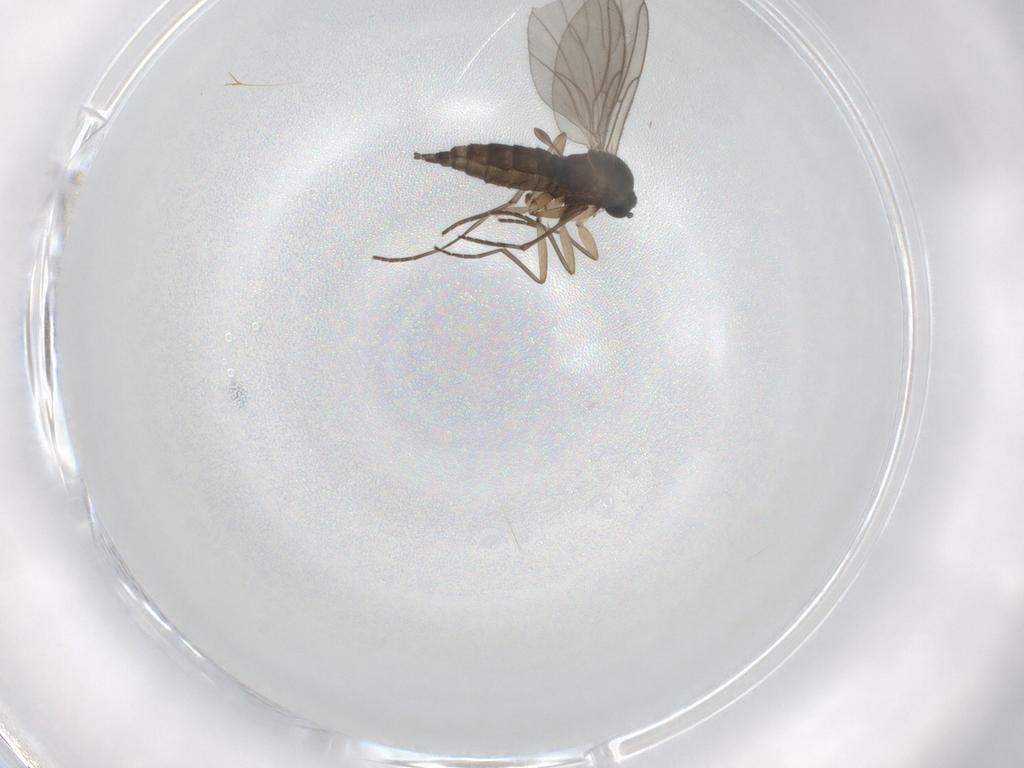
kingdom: Animalia
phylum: Arthropoda
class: Insecta
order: Diptera
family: Sciaridae
